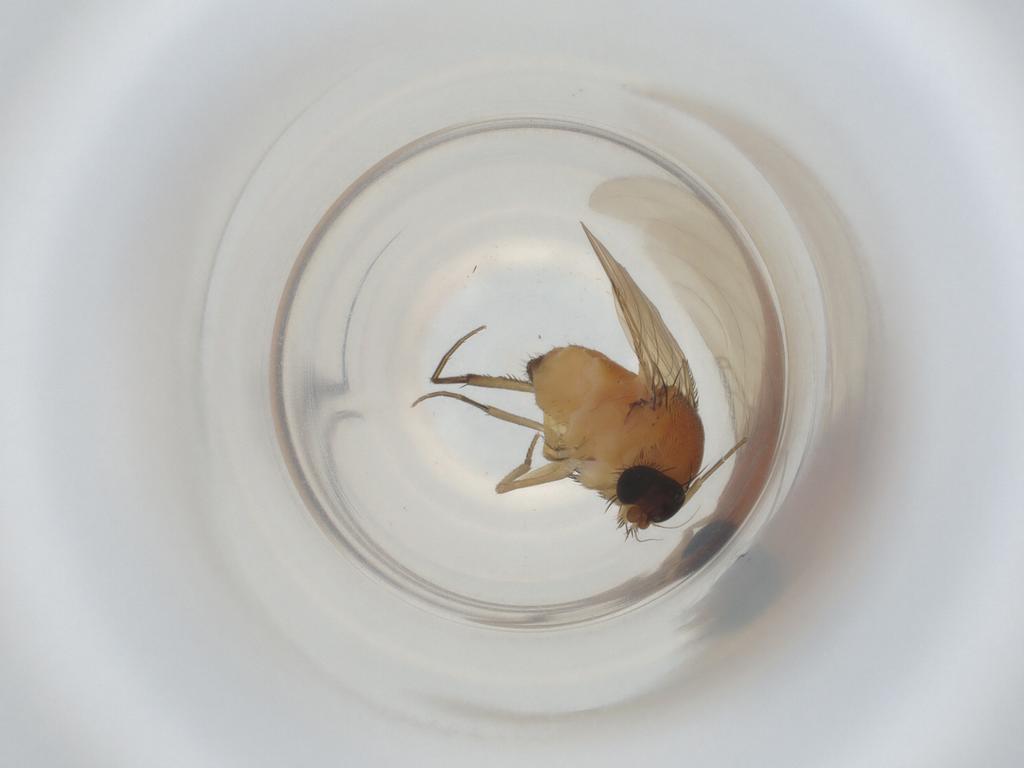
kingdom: Animalia
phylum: Arthropoda
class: Insecta
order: Diptera
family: Phoridae
